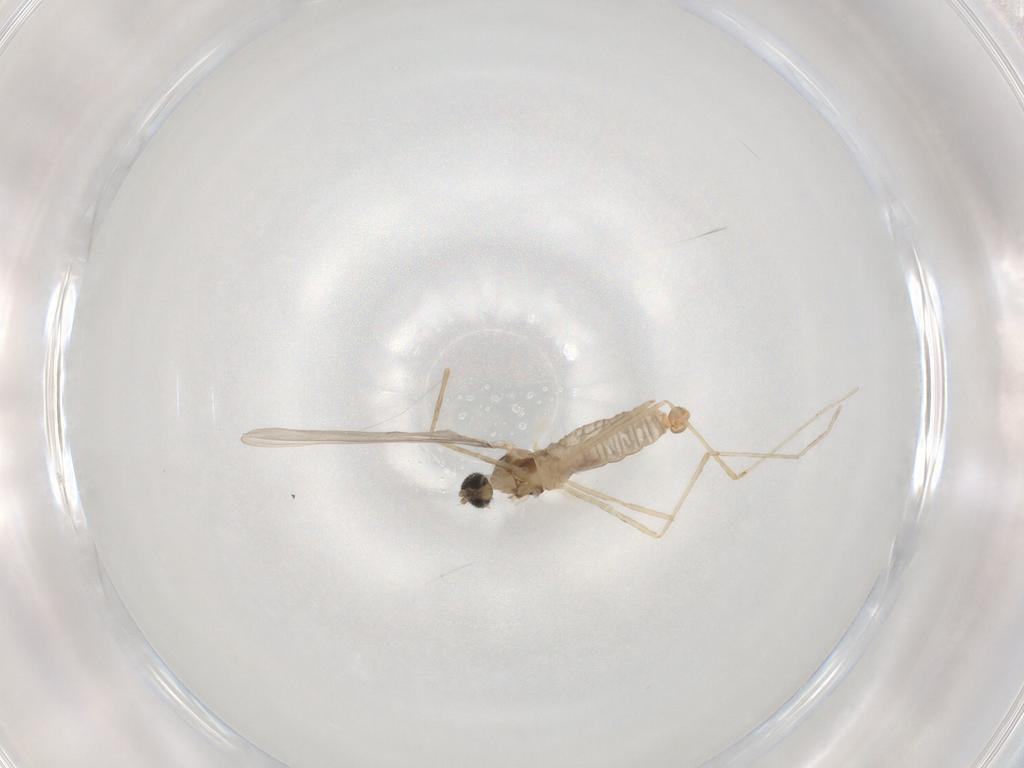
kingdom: Animalia
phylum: Arthropoda
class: Insecta
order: Diptera
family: Cecidomyiidae
